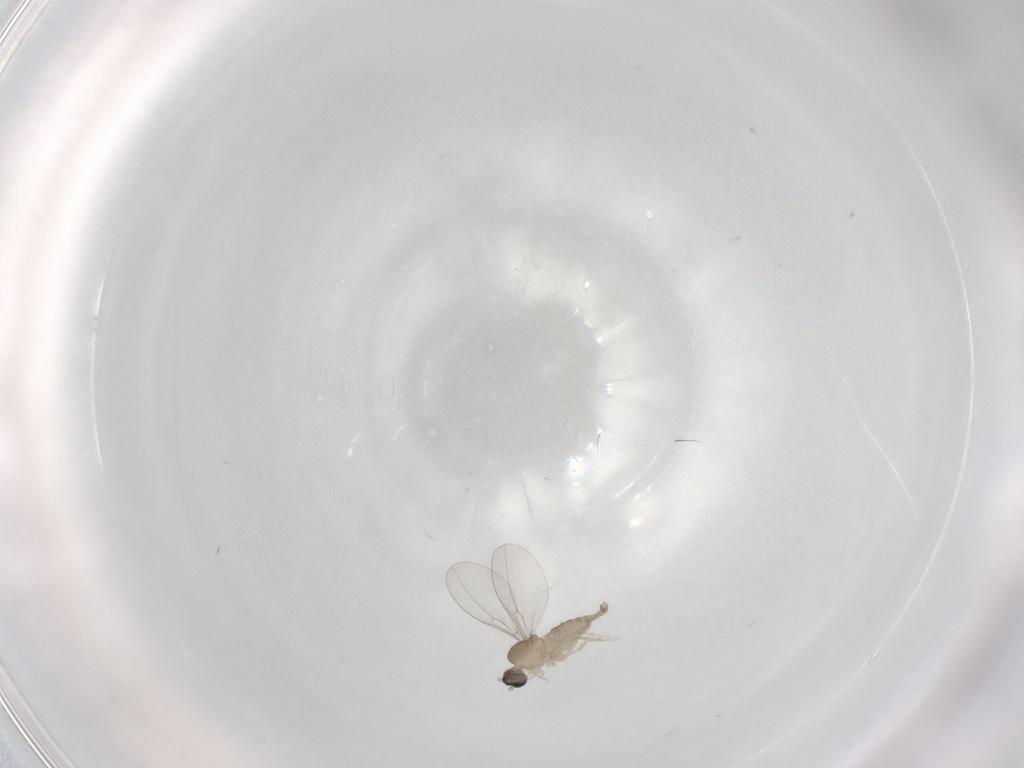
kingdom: Animalia
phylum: Arthropoda
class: Insecta
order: Diptera
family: Cecidomyiidae
